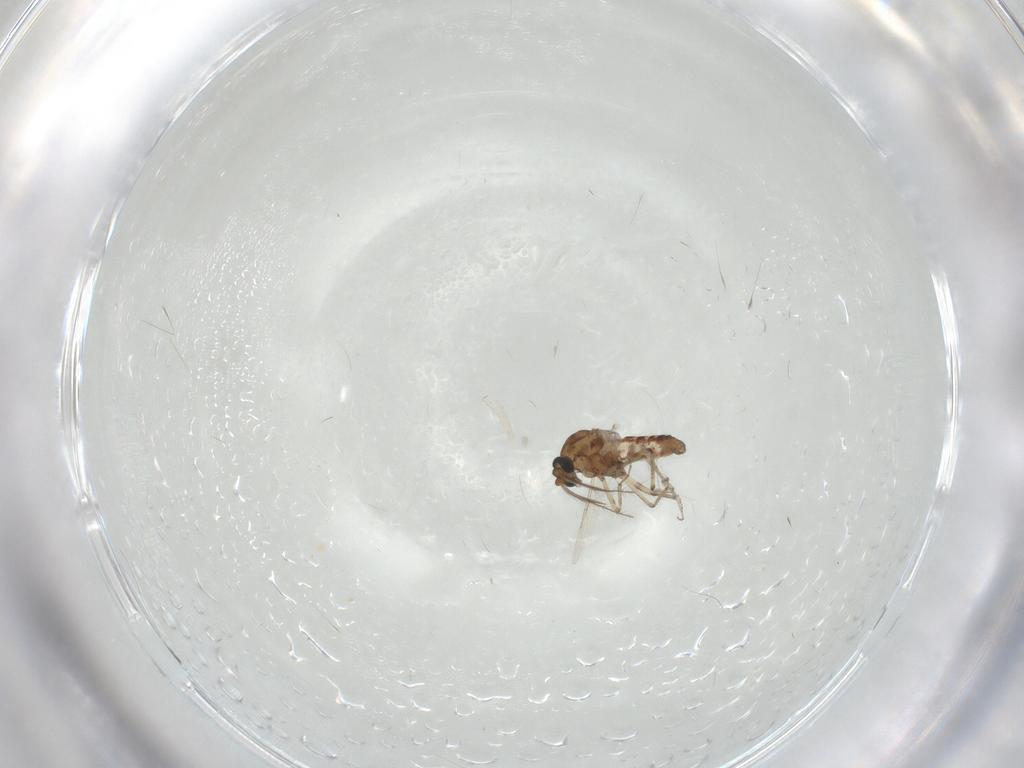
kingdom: Animalia
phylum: Arthropoda
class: Insecta
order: Diptera
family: Ceratopogonidae
